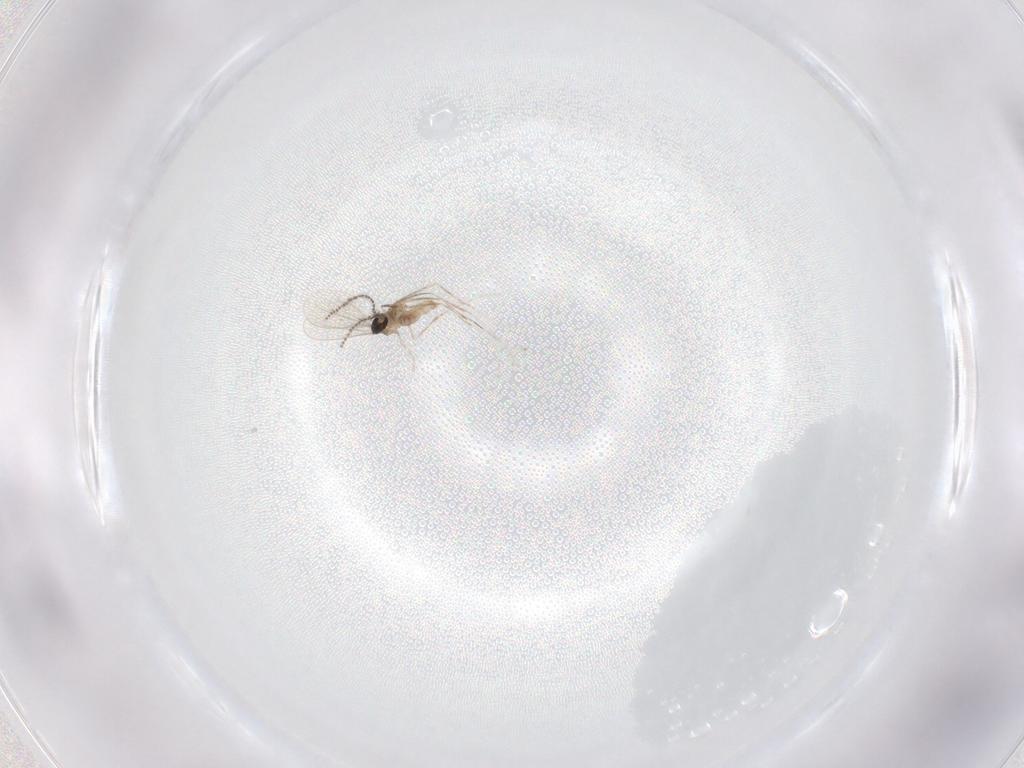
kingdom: Animalia
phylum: Arthropoda
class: Insecta
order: Diptera
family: Cecidomyiidae
